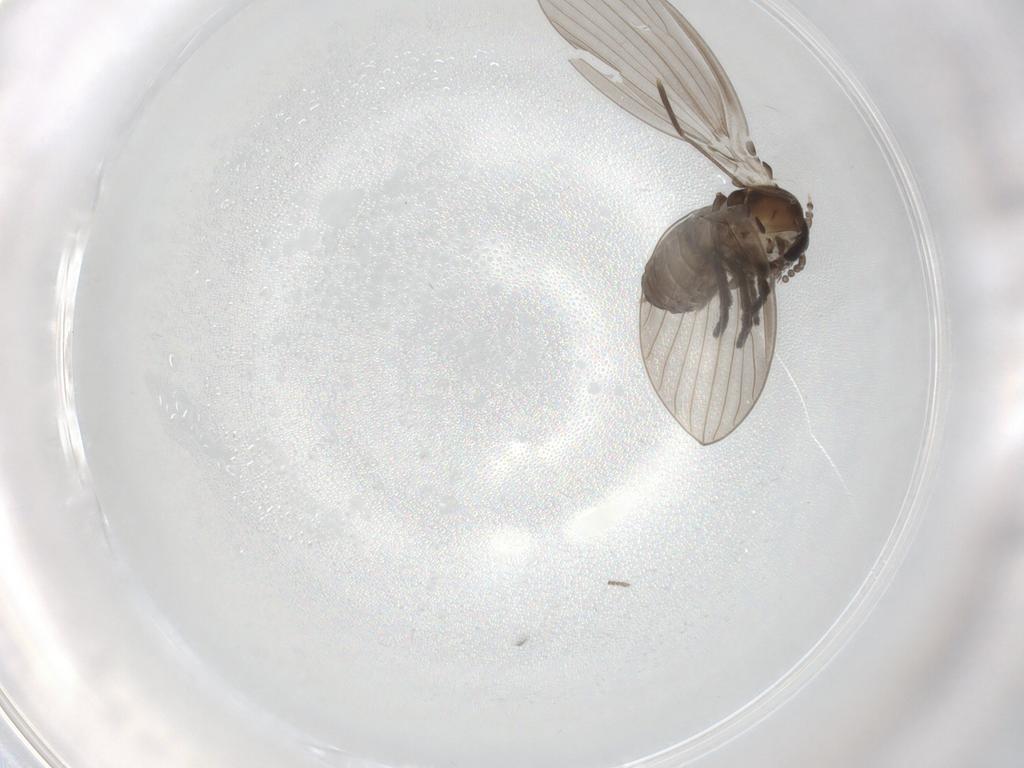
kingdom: Animalia
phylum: Arthropoda
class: Insecta
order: Diptera
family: Psychodidae
